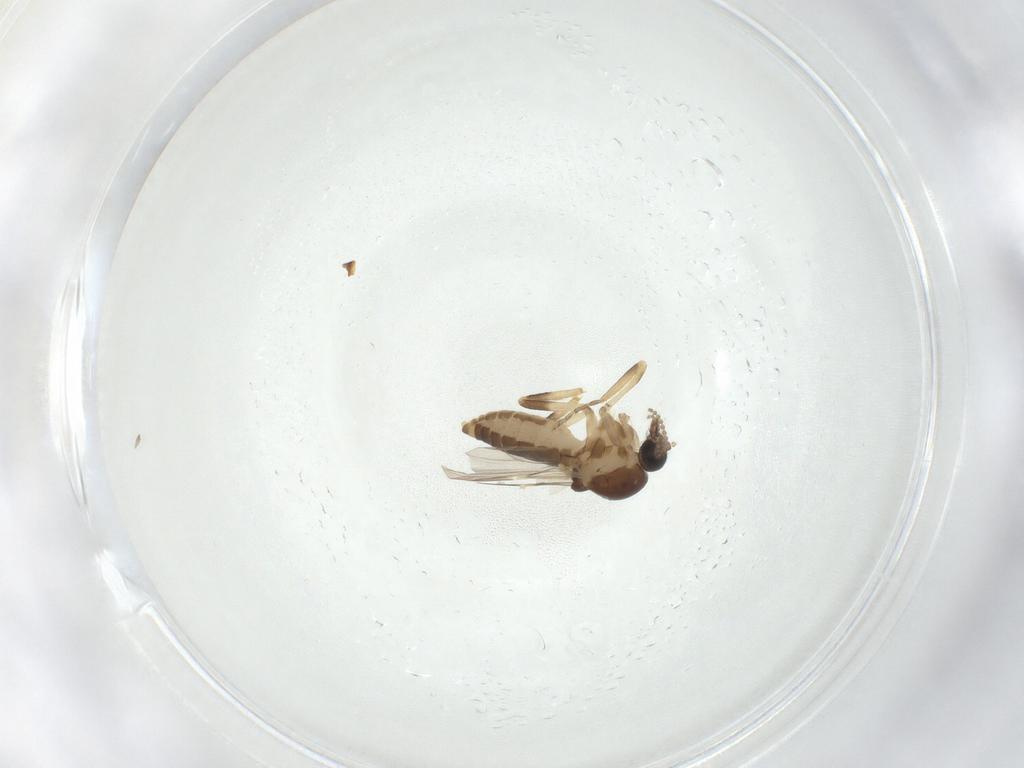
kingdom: Animalia
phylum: Arthropoda
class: Insecta
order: Diptera
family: Ceratopogonidae
